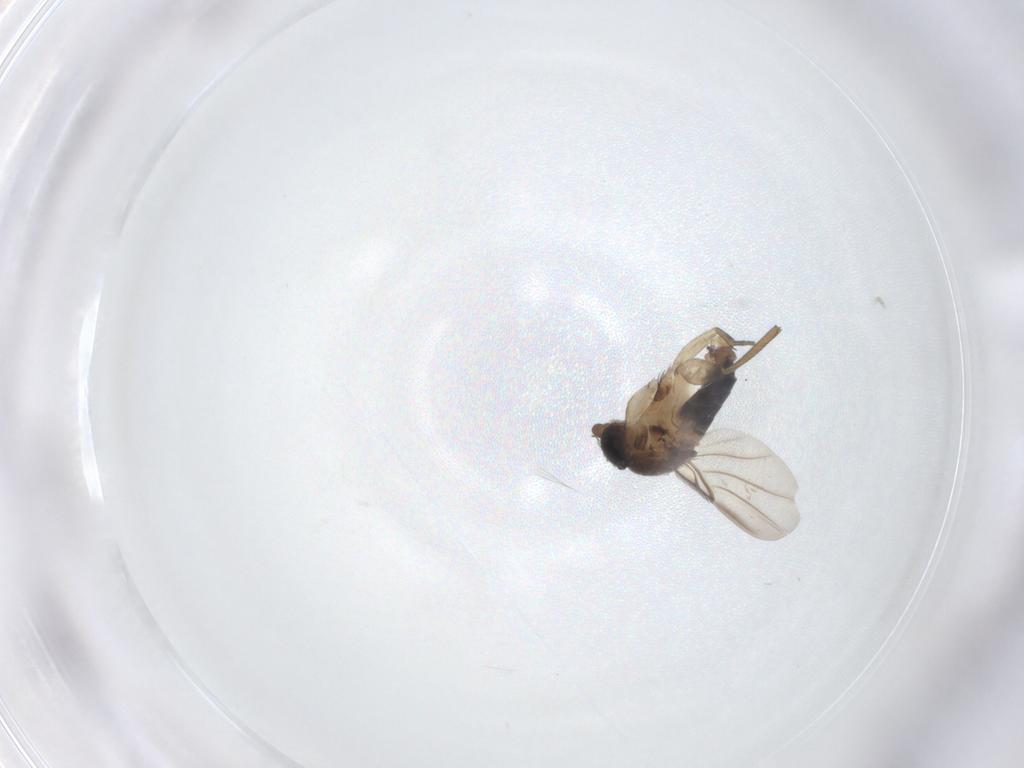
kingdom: Animalia
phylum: Arthropoda
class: Insecta
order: Diptera
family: Phoridae
